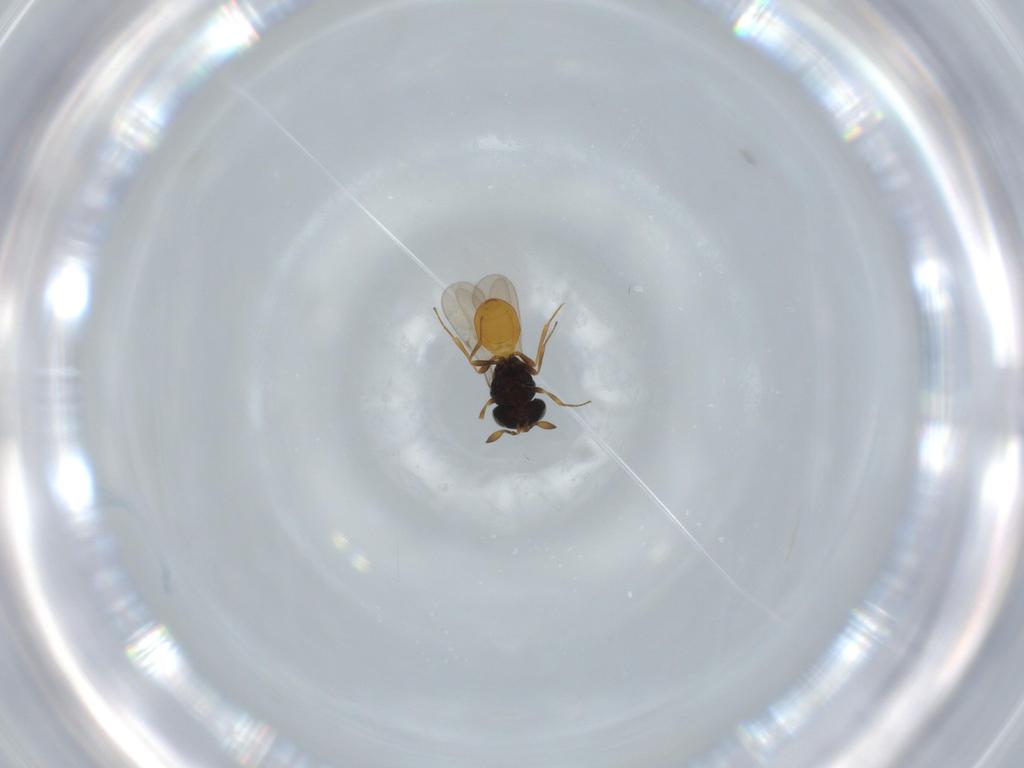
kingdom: Animalia
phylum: Arthropoda
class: Insecta
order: Hymenoptera
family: Scelionidae
